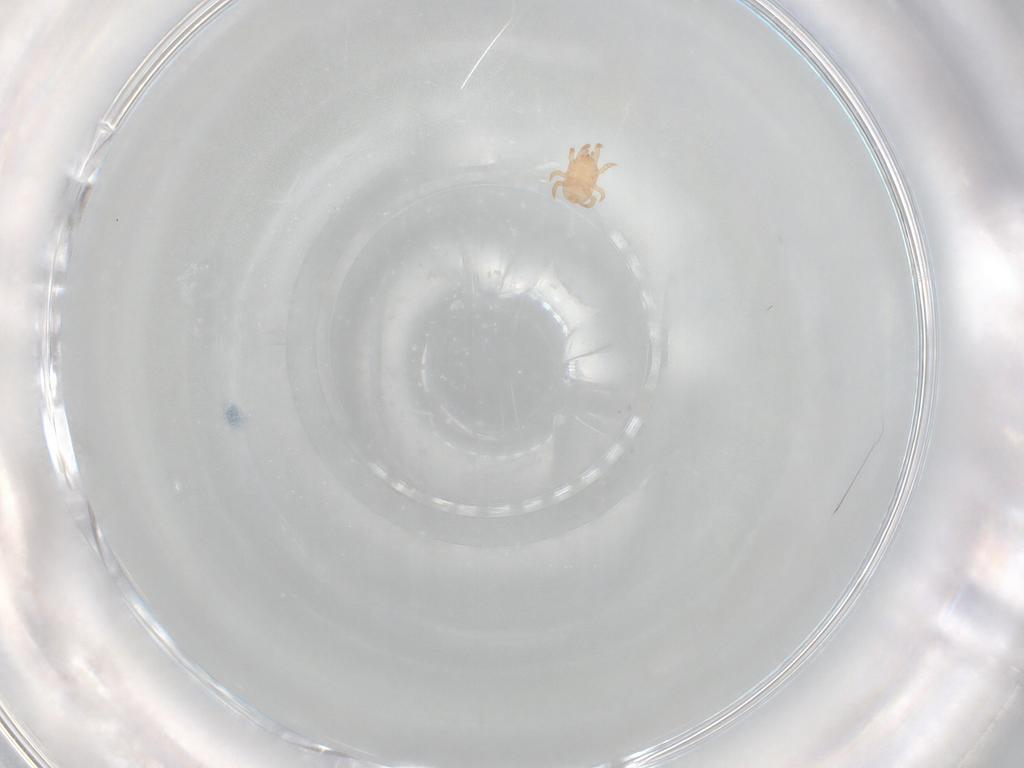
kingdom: Animalia
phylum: Arthropoda
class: Arachnida
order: Mesostigmata
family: Halolaelapidae
